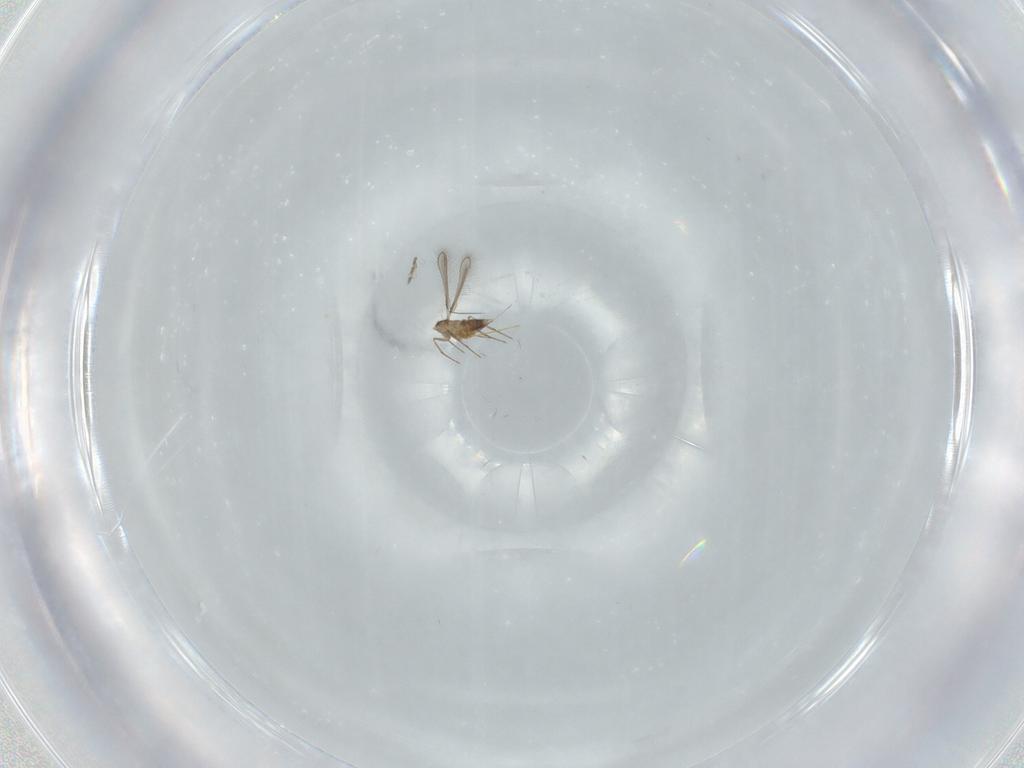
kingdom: Animalia
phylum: Arthropoda
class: Insecta
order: Hymenoptera
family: Mymaridae
